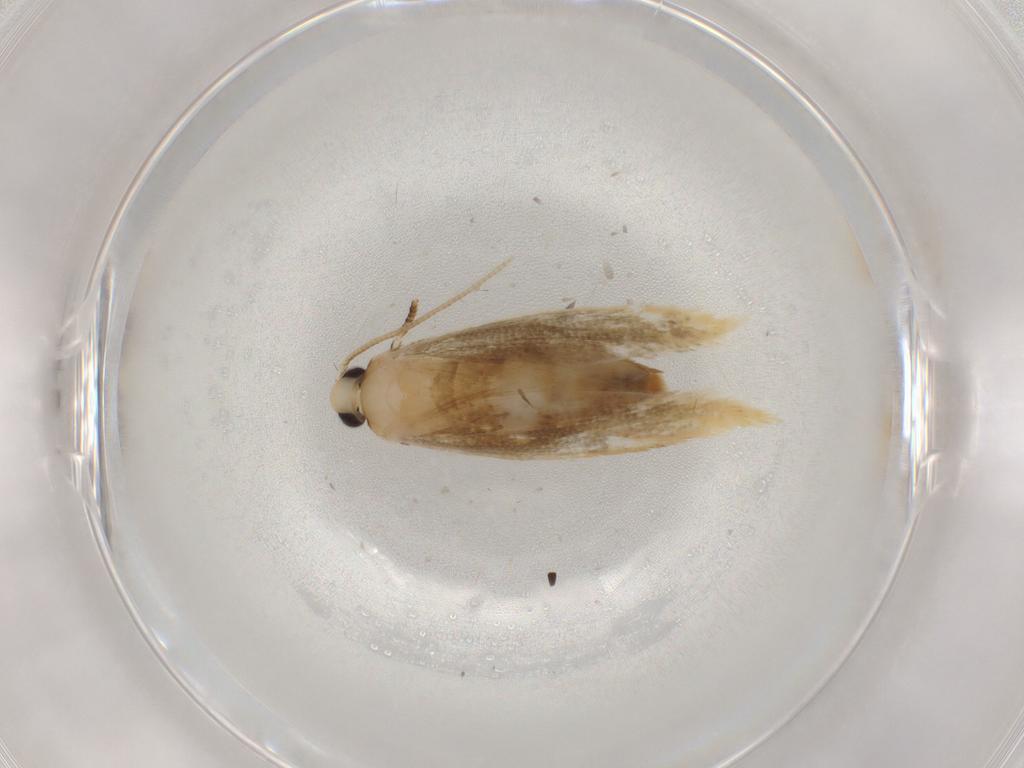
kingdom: Animalia
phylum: Arthropoda
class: Insecta
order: Lepidoptera
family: Tineidae
